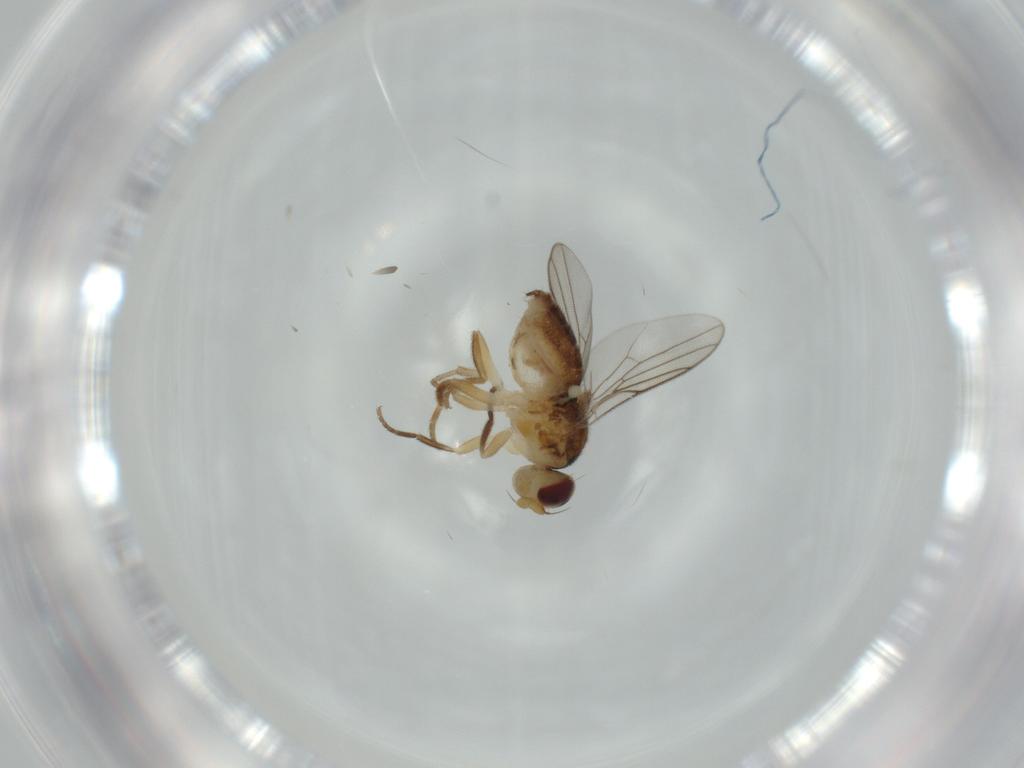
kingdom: Animalia
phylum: Arthropoda
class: Insecta
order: Diptera
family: Chloropidae
